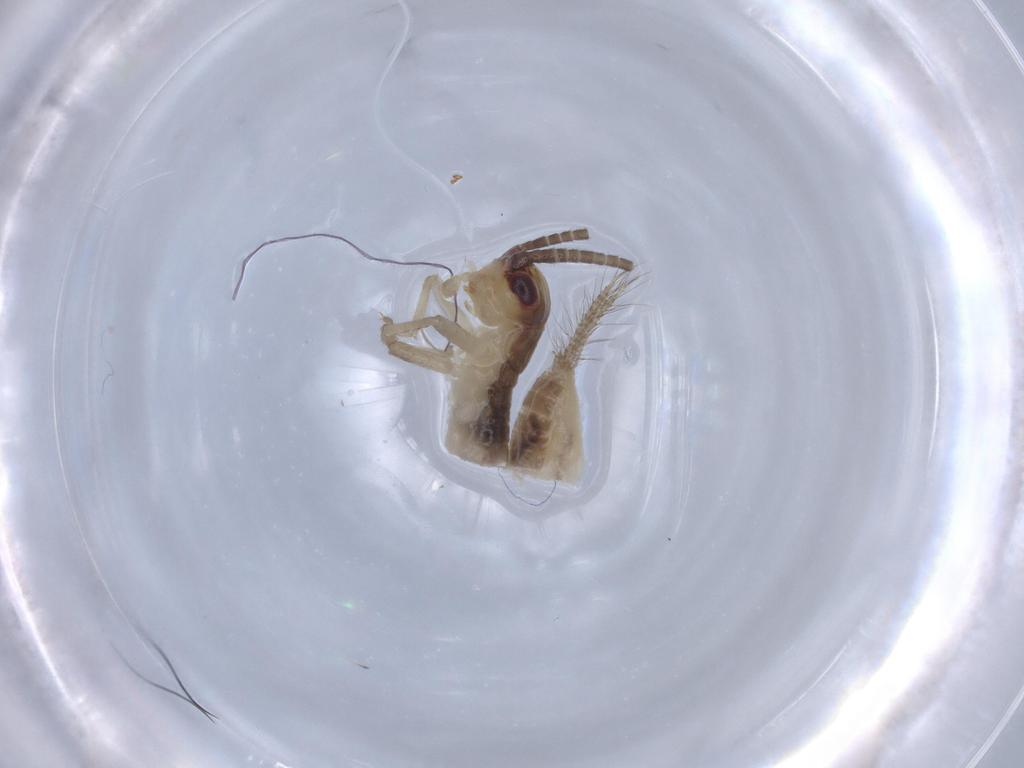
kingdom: Animalia
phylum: Arthropoda
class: Insecta
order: Orthoptera
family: Gryllidae
